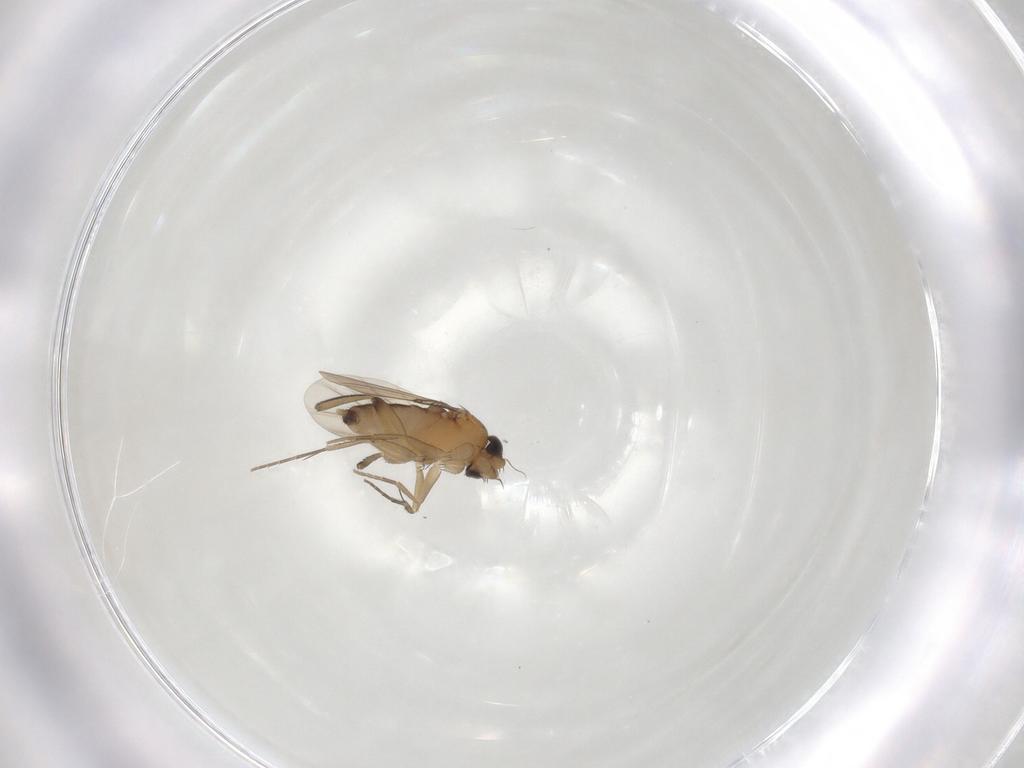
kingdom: Animalia
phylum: Arthropoda
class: Insecta
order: Diptera
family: Phoridae
